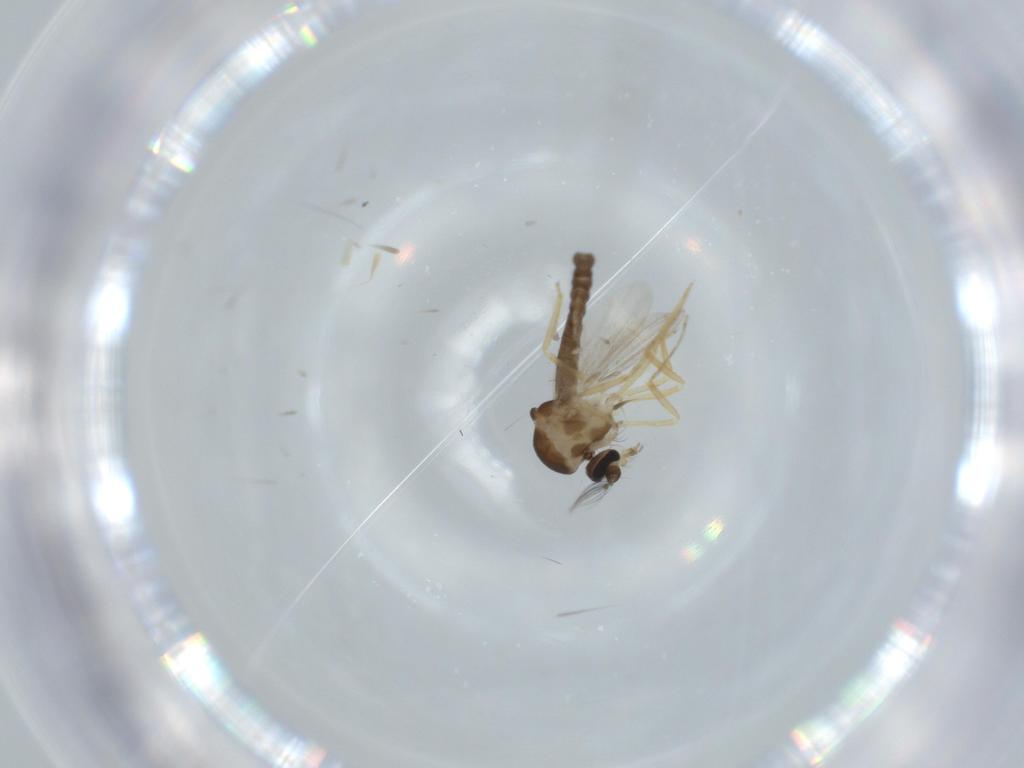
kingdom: Animalia
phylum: Arthropoda
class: Insecta
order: Diptera
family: Ceratopogonidae
